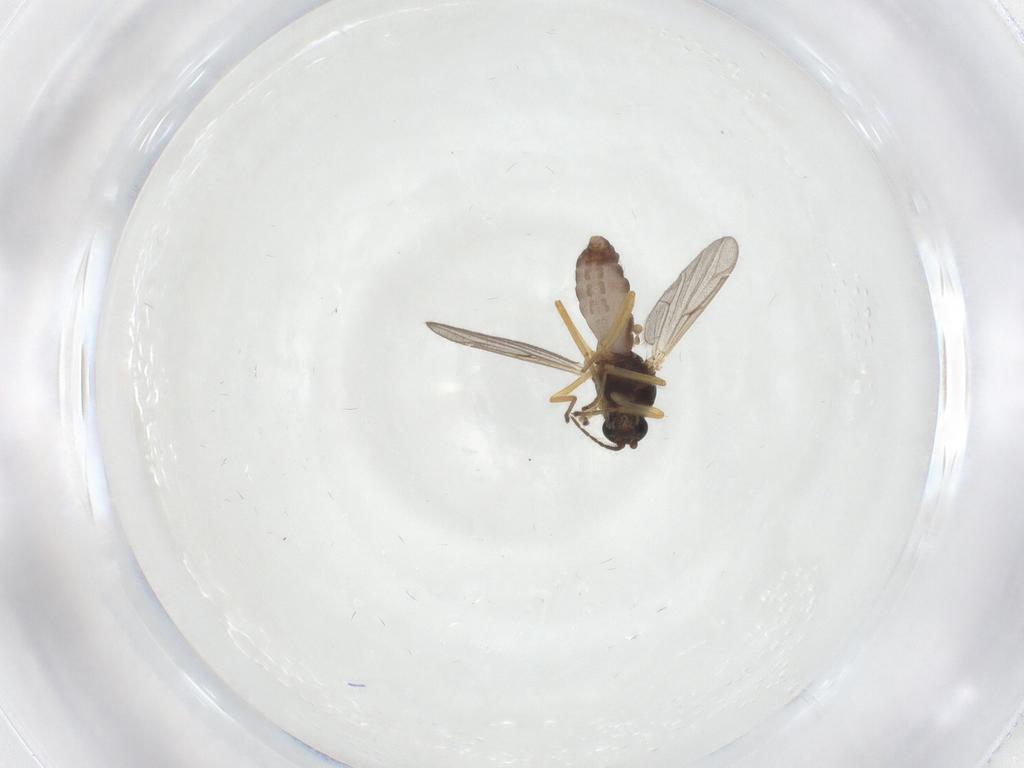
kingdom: Animalia
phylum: Arthropoda
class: Insecta
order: Diptera
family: Ceratopogonidae
